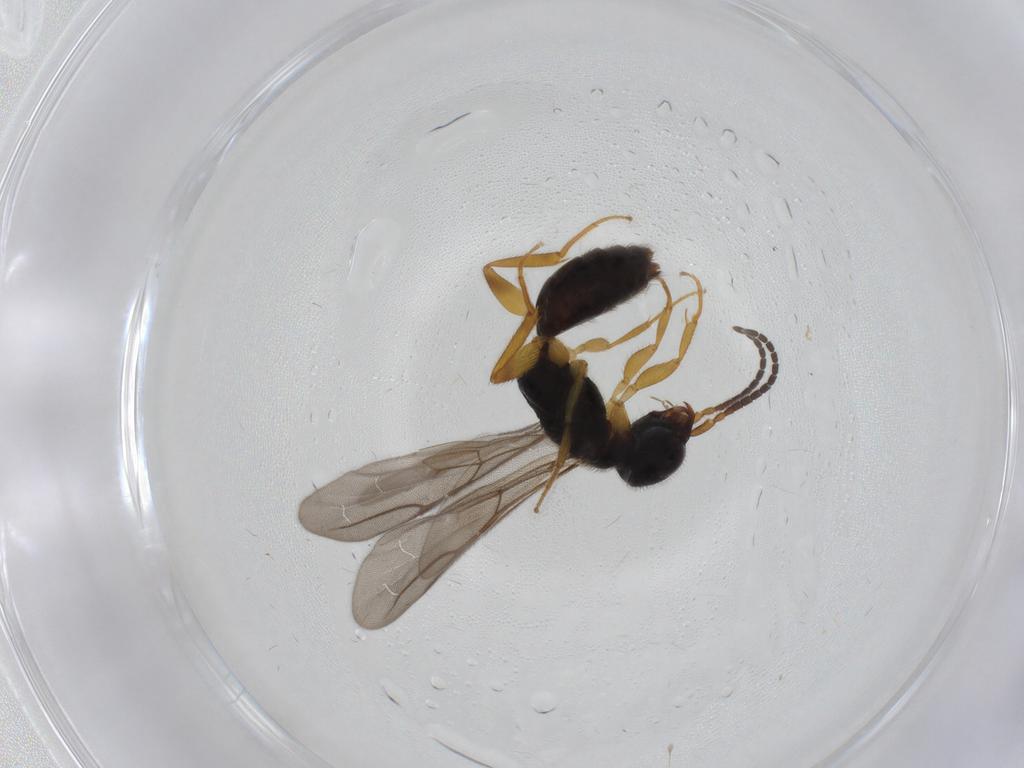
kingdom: Animalia
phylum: Arthropoda
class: Insecta
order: Hymenoptera
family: Bethylidae
